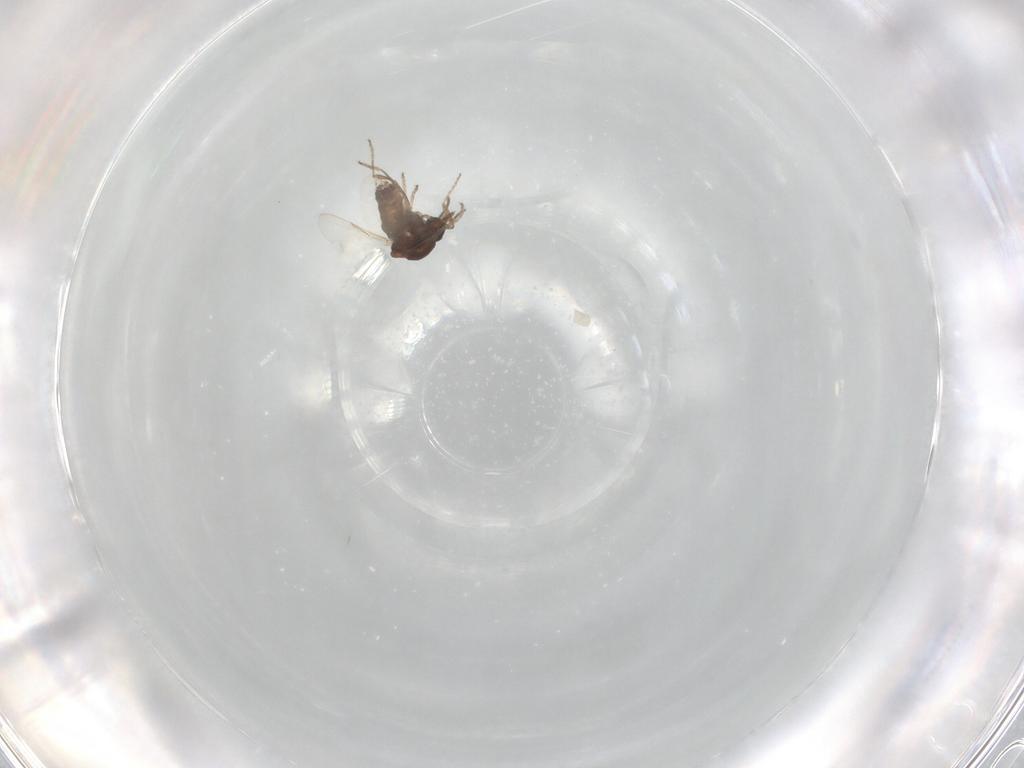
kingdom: Animalia
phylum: Arthropoda
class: Insecta
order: Diptera
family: Ceratopogonidae
